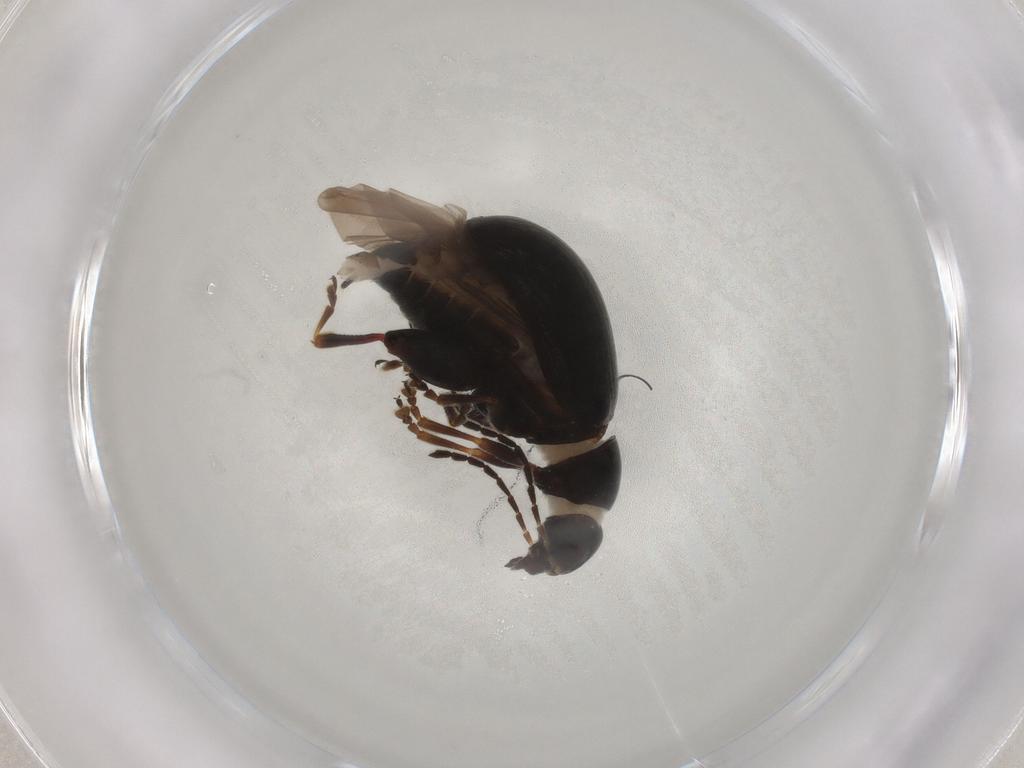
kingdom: Animalia
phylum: Arthropoda
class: Insecta
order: Coleoptera
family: Chrysomelidae
